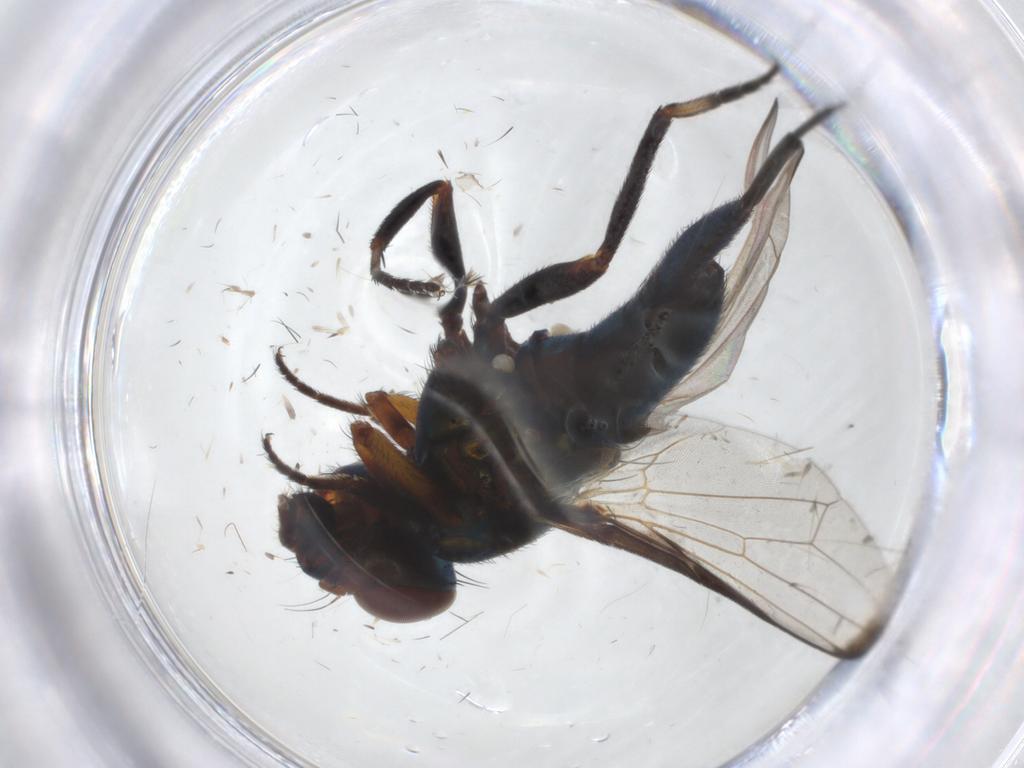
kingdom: Animalia
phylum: Arthropoda
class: Insecta
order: Diptera
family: Ulidiidae
